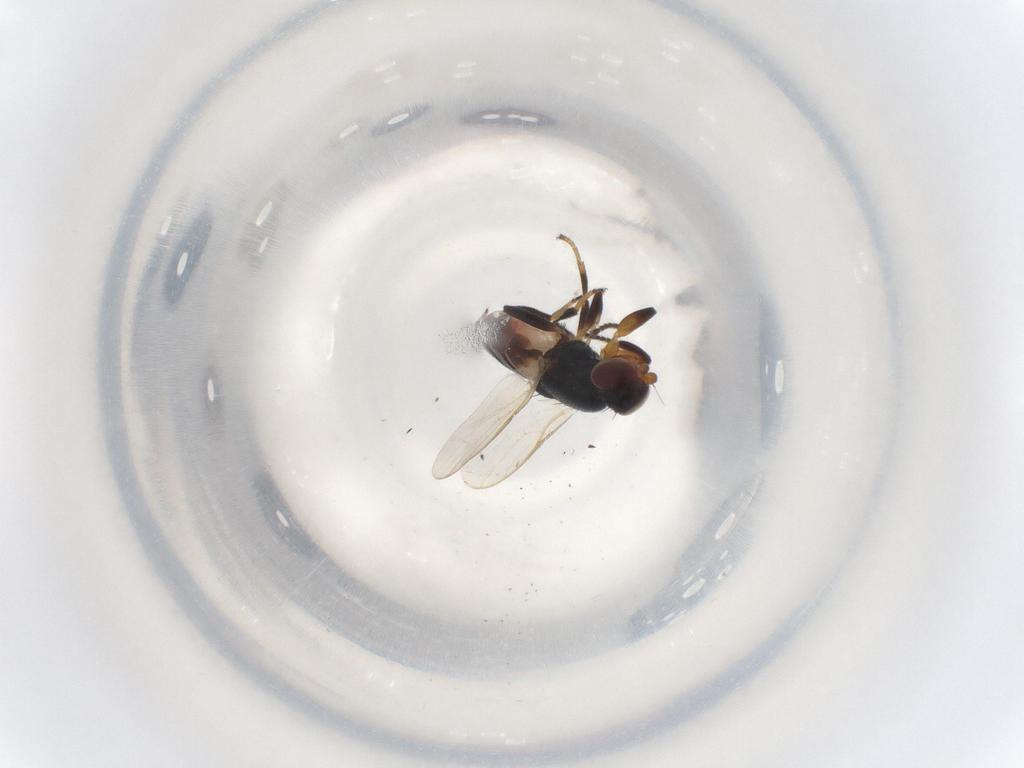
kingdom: Animalia
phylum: Arthropoda
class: Insecta
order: Diptera
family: Chloropidae
